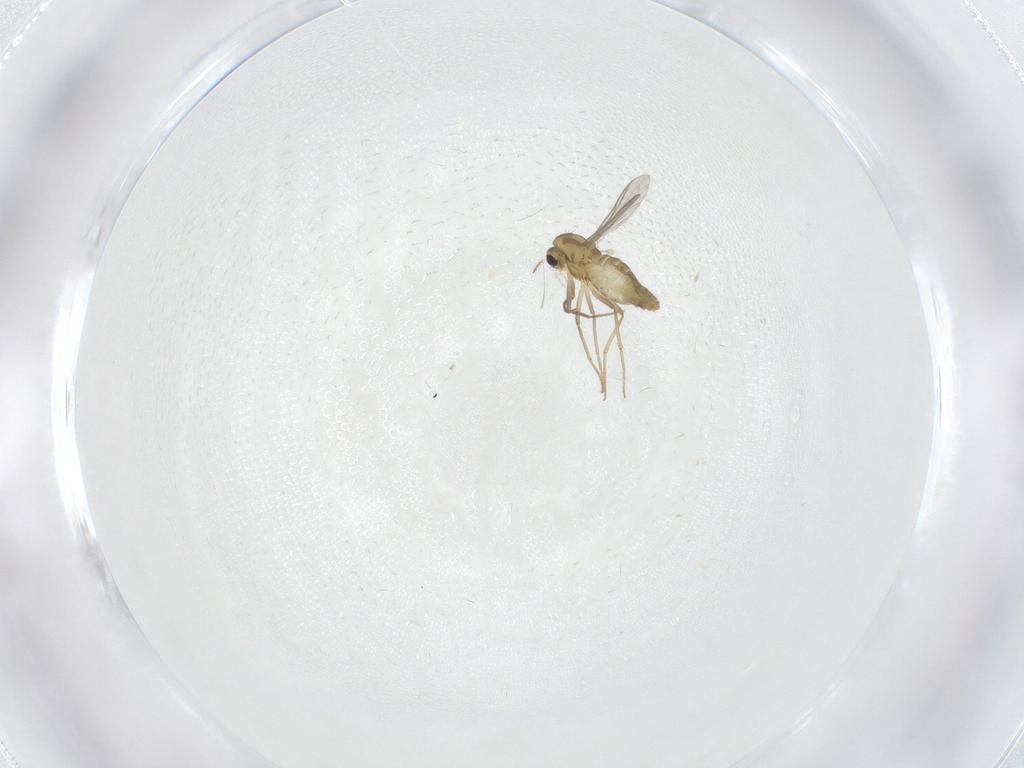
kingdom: Animalia
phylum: Arthropoda
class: Insecta
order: Diptera
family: Chironomidae
